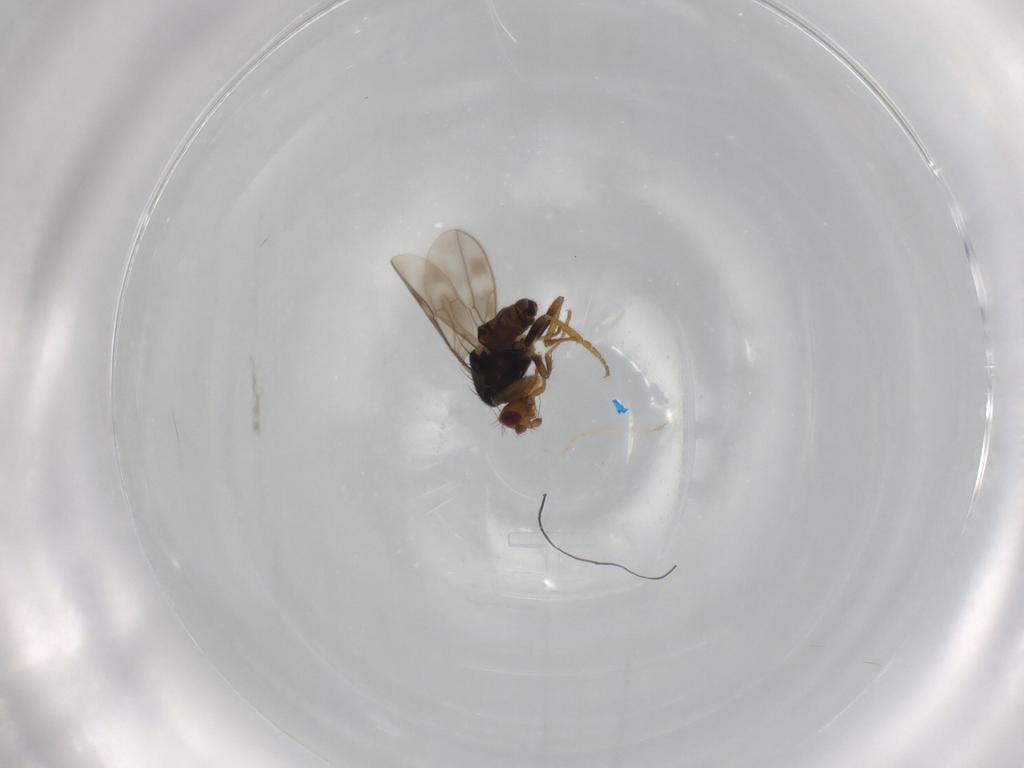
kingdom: Animalia
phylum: Arthropoda
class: Insecta
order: Diptera
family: Sphaeroceridae
